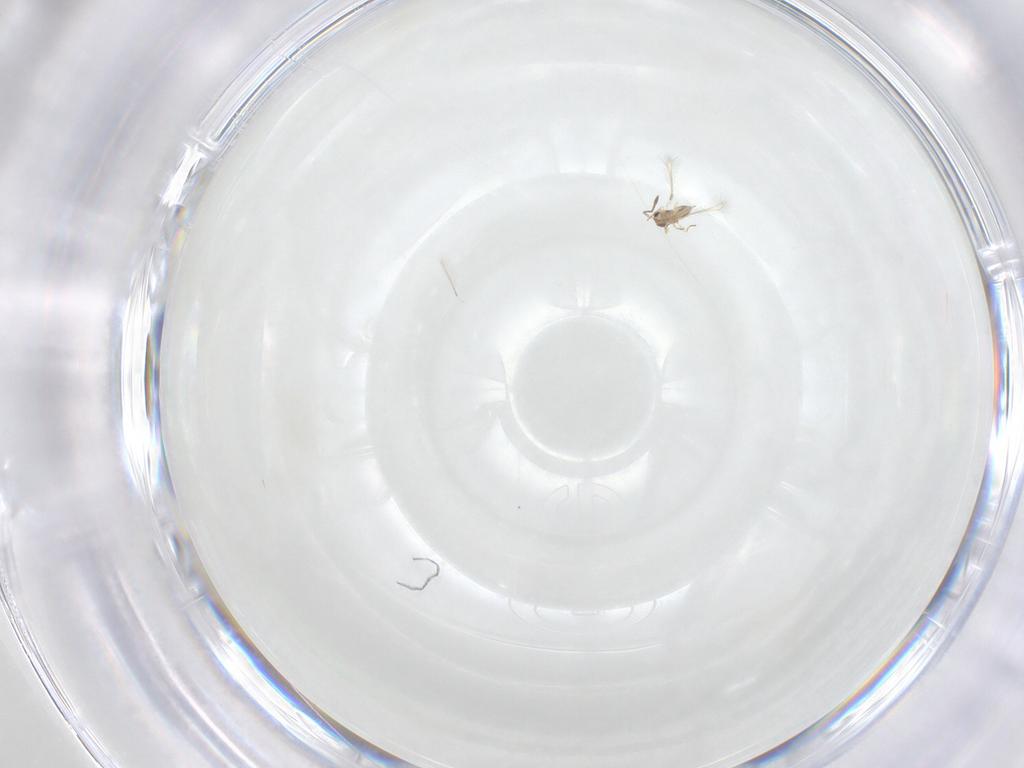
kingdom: Animalia
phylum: Arthropoda
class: Insecta
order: Hymenoptera
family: Mymaridae
